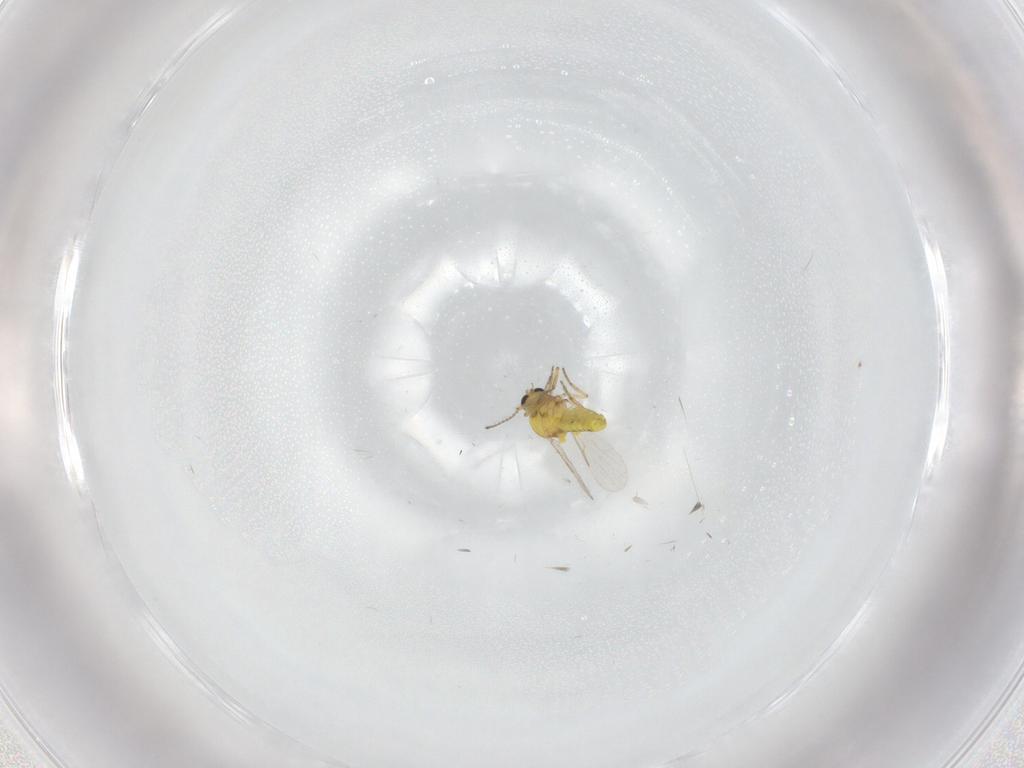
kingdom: Animalia
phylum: Arthropoda
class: Insecta
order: Diptera
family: Ceratopogonidae
